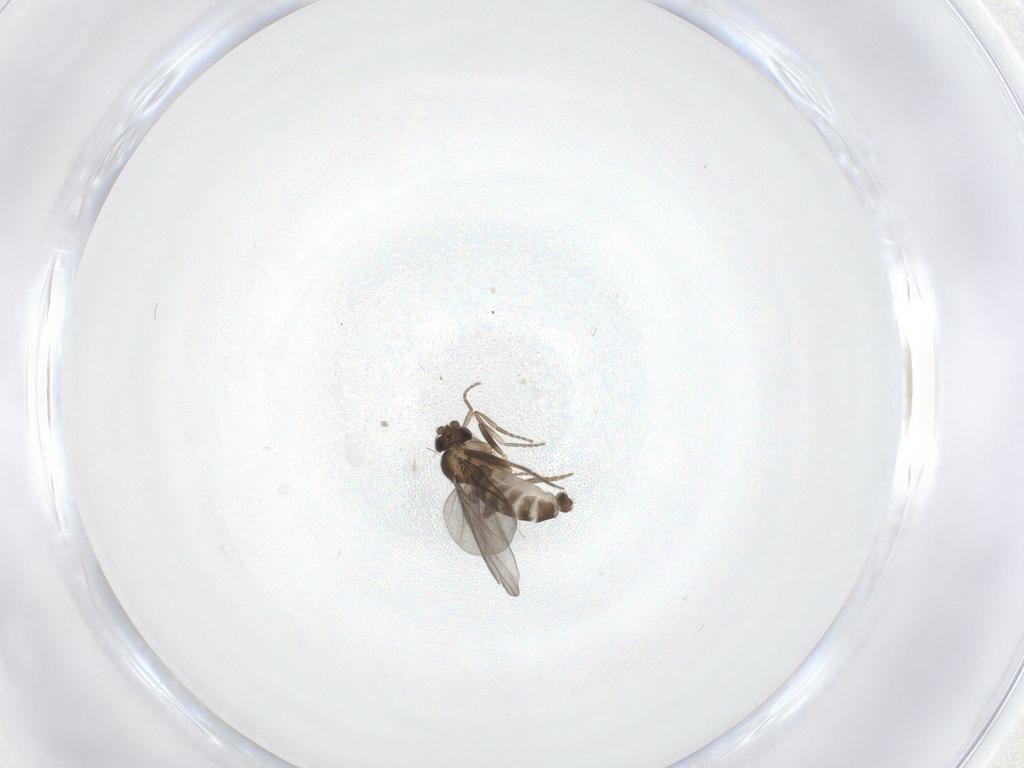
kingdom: Animalia
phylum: Arthropoda
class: Insecta
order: Diptera
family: Phoridae
